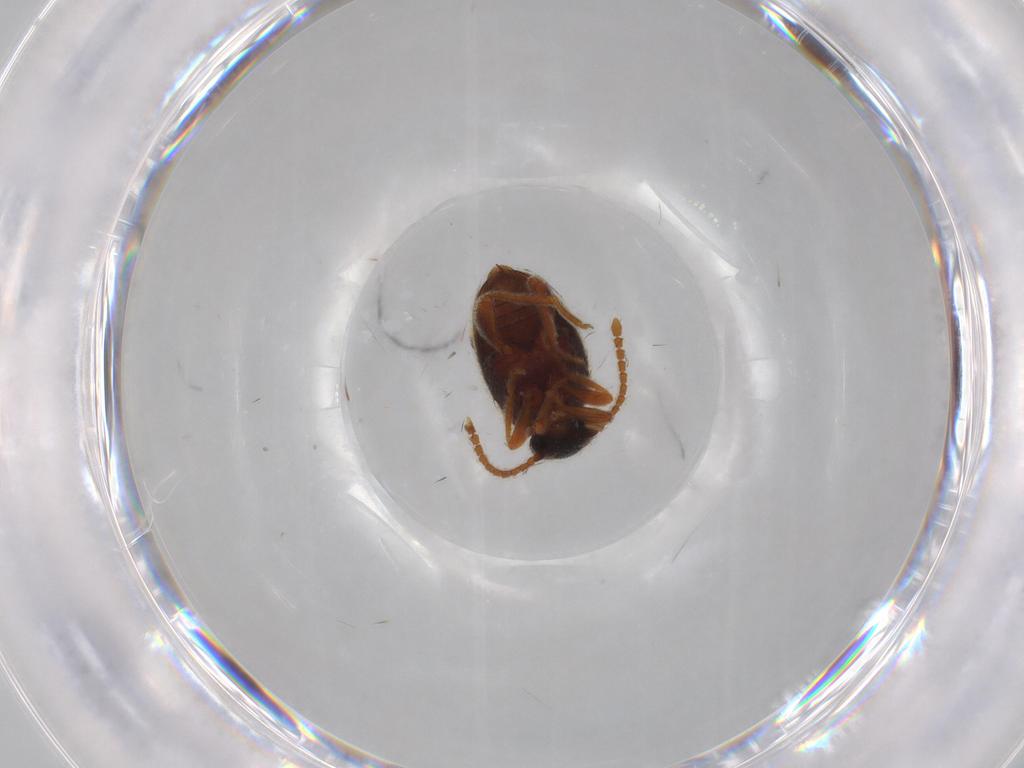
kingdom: Animalia
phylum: Arthropoda
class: Insecta
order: Coleoptera
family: Aderidae
